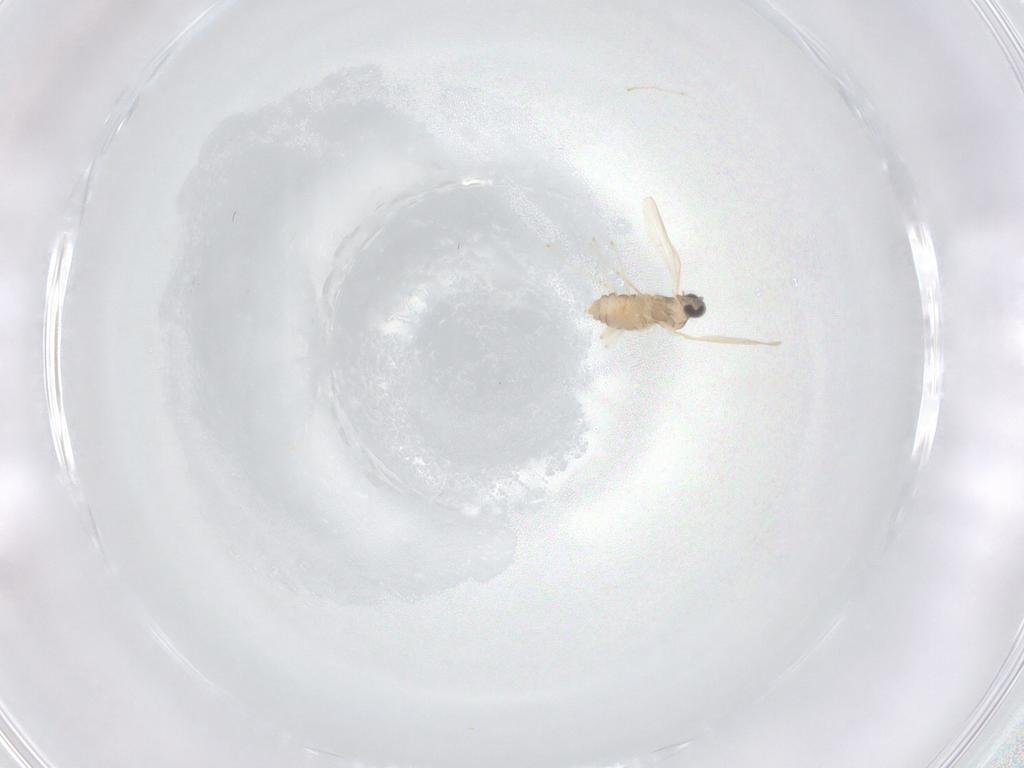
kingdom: Animalia
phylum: Arthropoda
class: Insecta
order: Diptera
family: Cecidomyiidae
